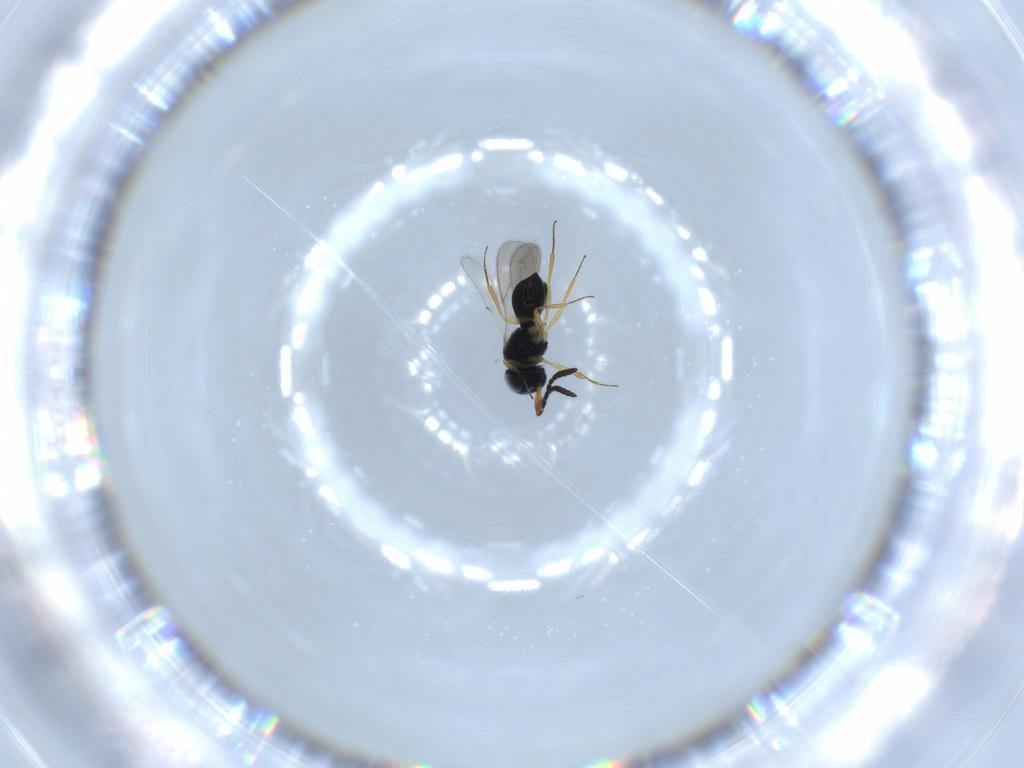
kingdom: Animalia
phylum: Arthropoda
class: Insecta
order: Hymenoptera
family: Scelionidae
